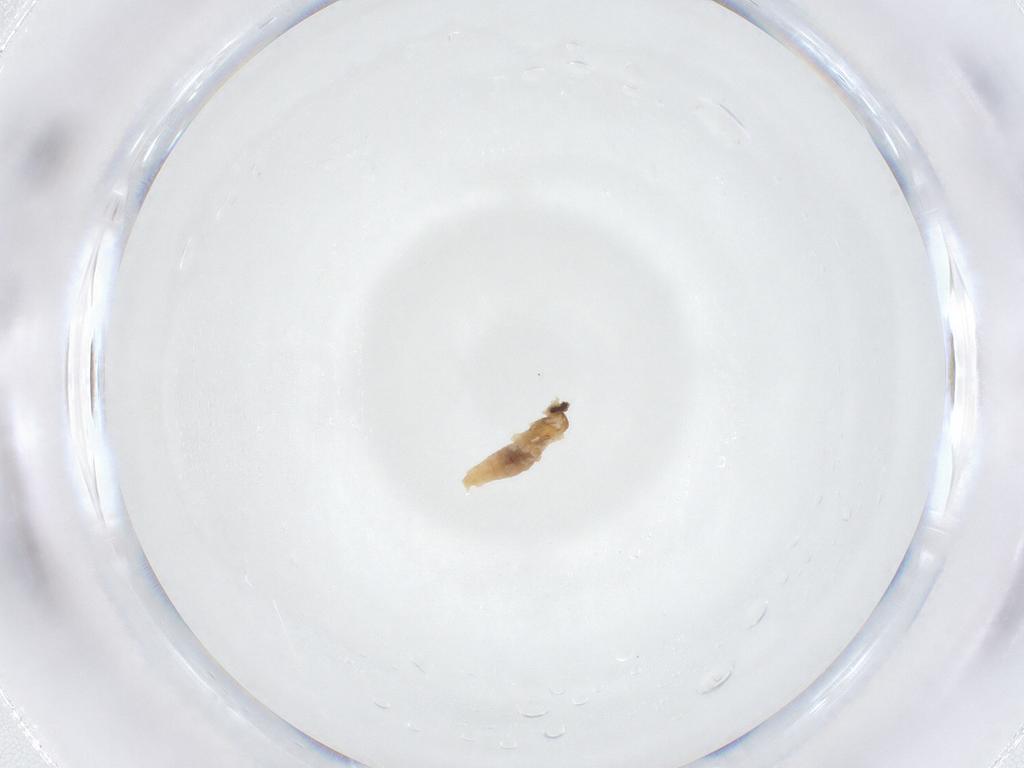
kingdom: Animalia
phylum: Arthropoda
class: Insecta
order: Diptera
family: Cecidomyiidae
